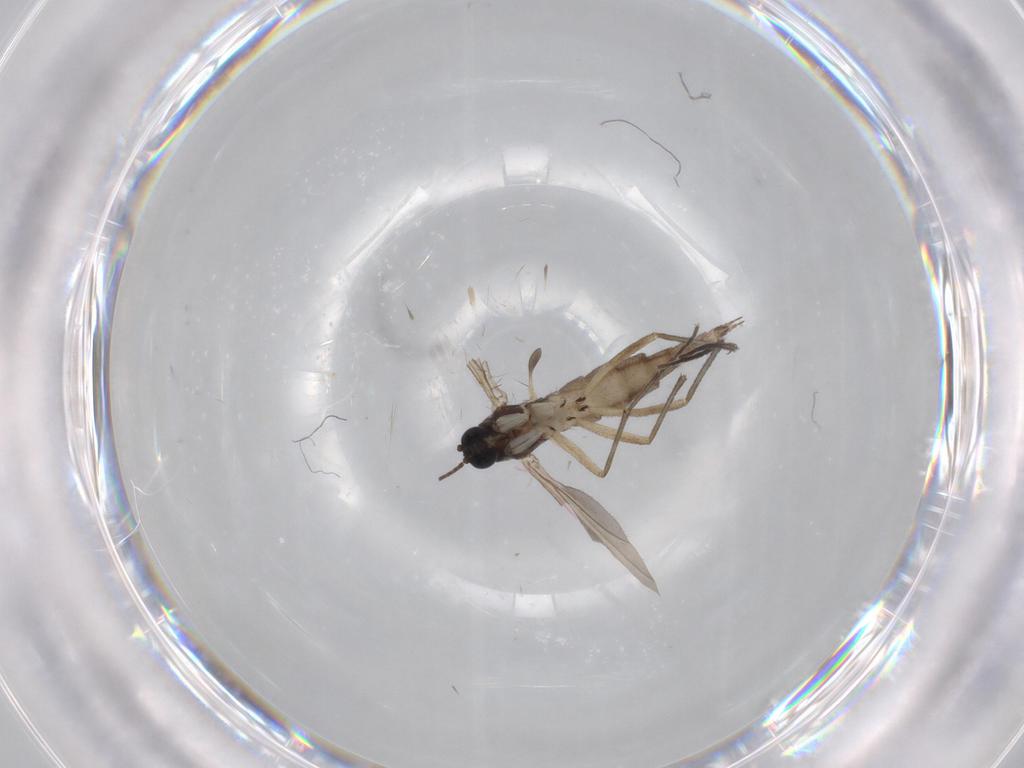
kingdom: Animalia
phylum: Arthropoda
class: Insecta
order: Diptera
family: Sciaridae
